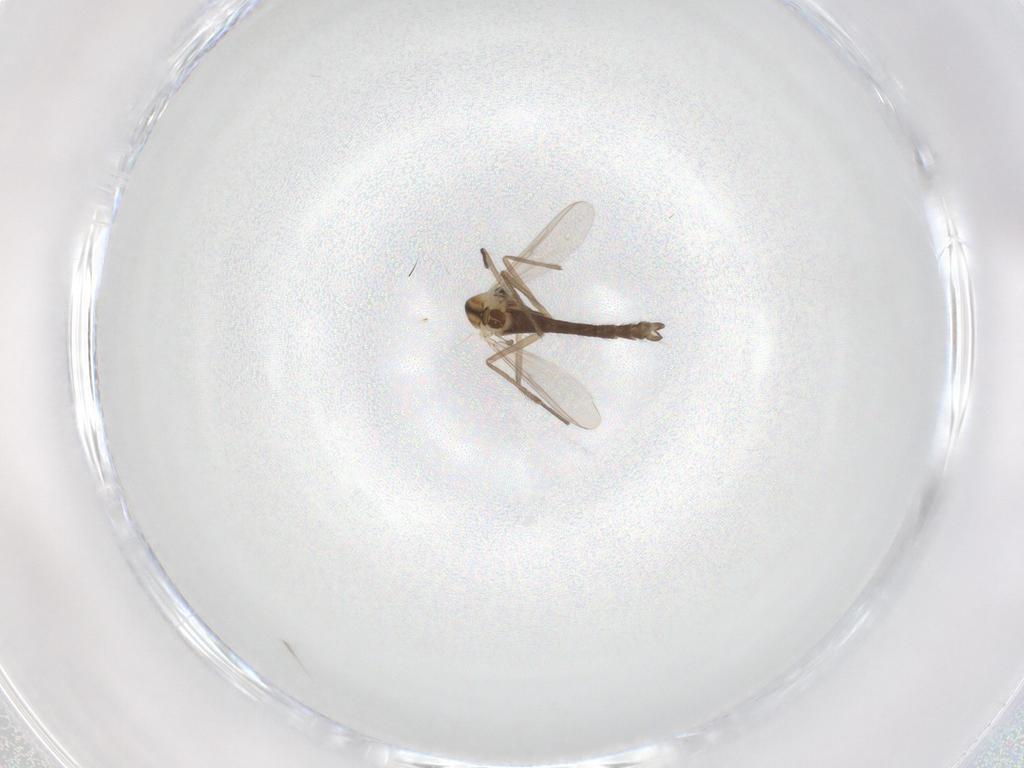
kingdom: Animalia
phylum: Arthropoda
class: Insecta
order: Diptera
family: Chironomidae
